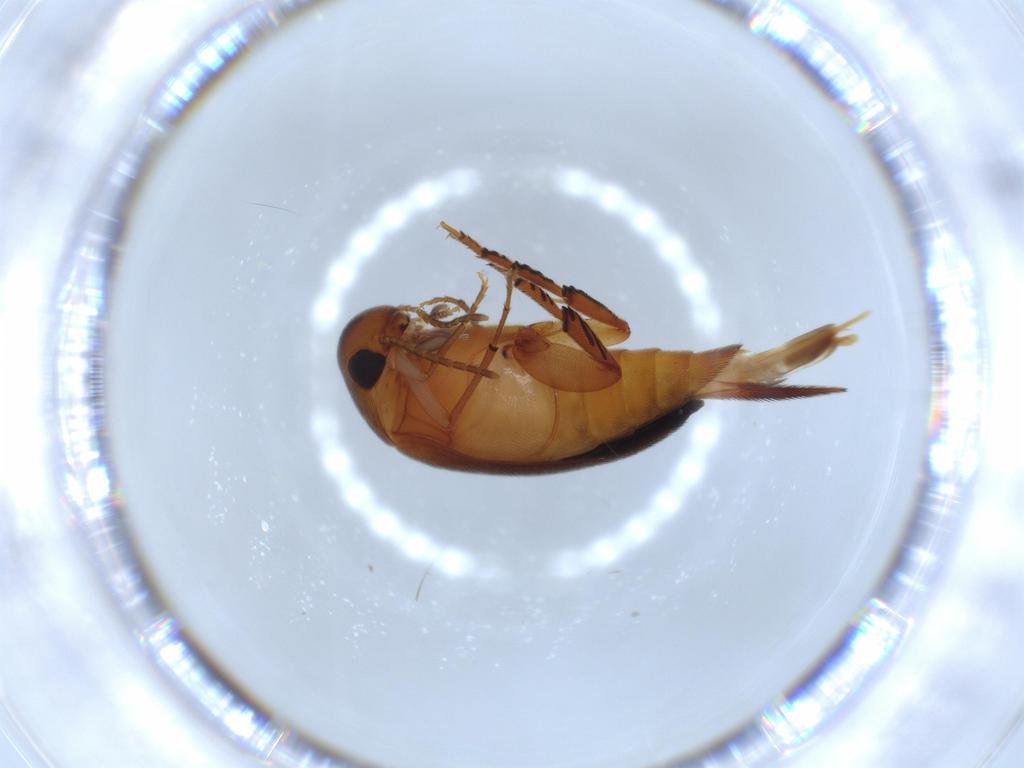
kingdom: Animalia
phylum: Arthropoda
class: Insecta
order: Coleoptera
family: Mordellidae
